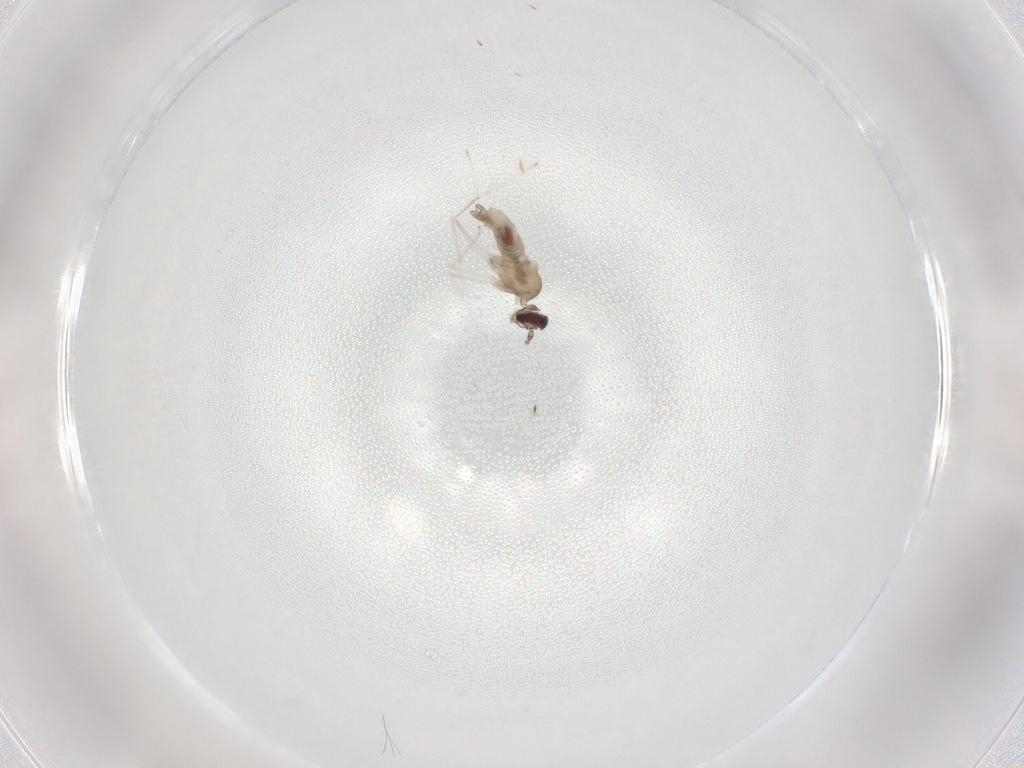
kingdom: Animalia
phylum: Arthropoda
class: Insecta
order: Diptera
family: Cecidomyiidae
